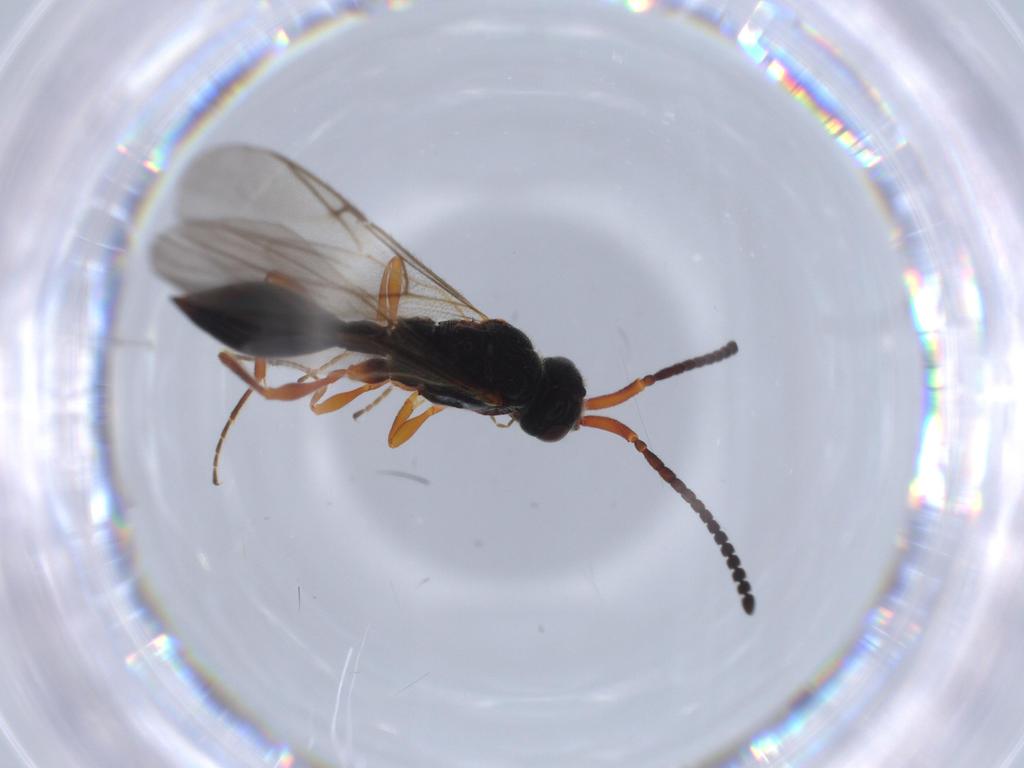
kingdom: Animalia
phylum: Arthropoda
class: Insecta
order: Hymenoptera
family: Diapriidae
